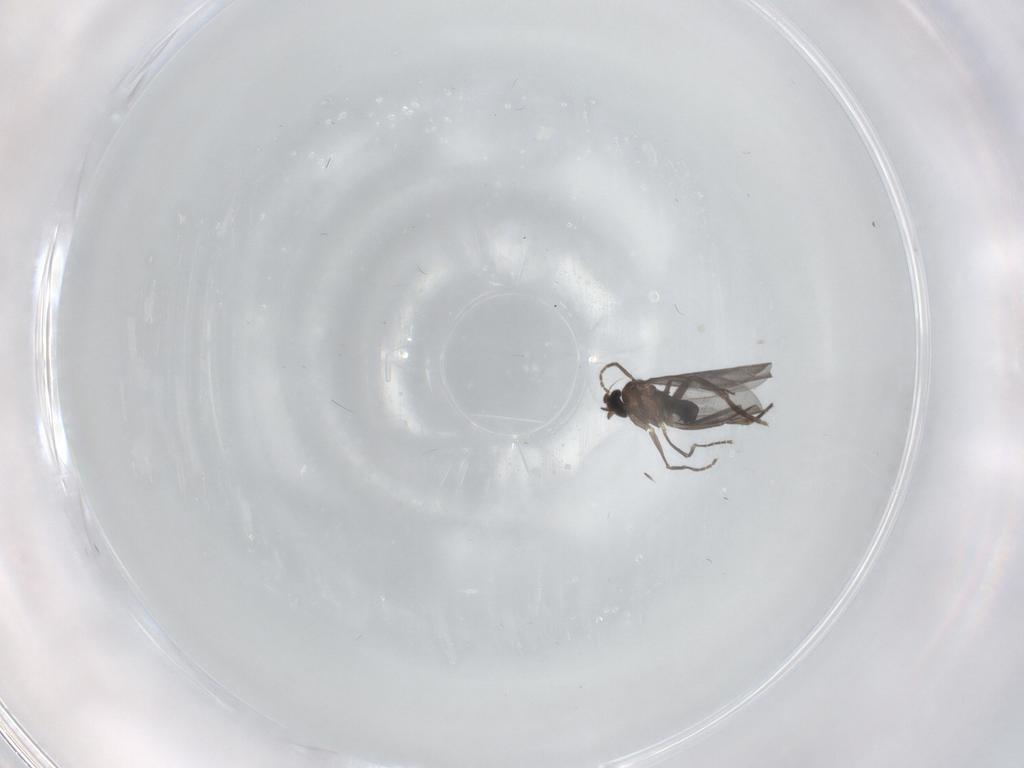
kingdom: Animalia
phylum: Arthropoda
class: Insecta
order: Diptera
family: Phoridae
